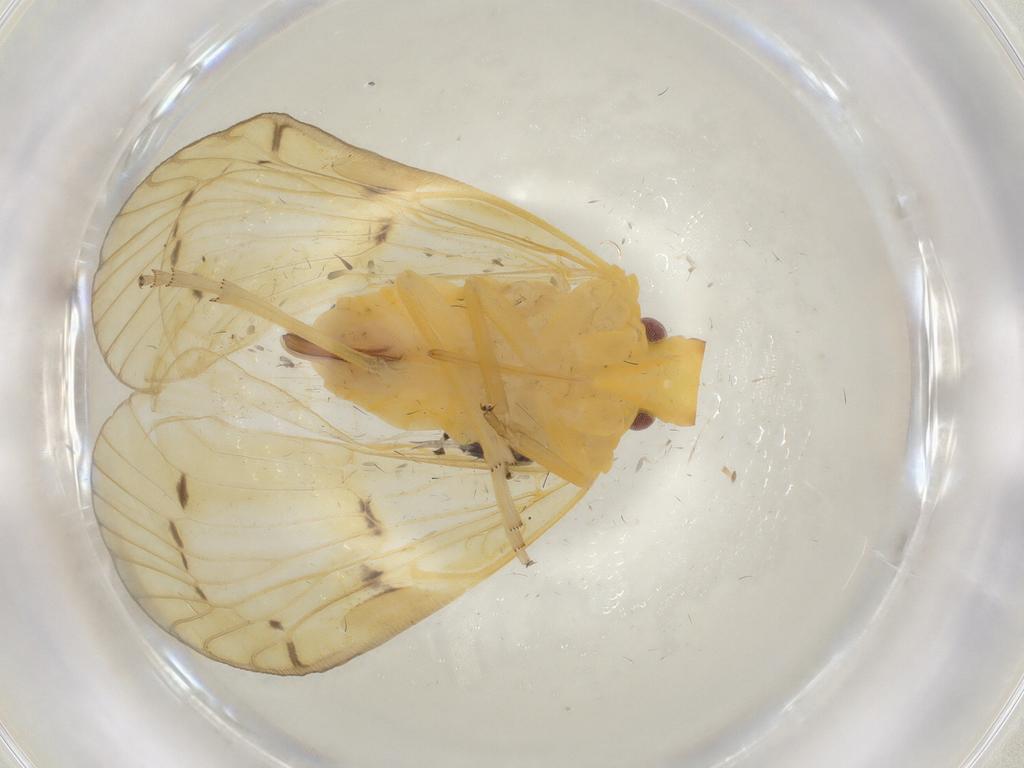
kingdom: Animalia
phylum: Arthropoda
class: Insecta
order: Hemiptera
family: Cixiidae
